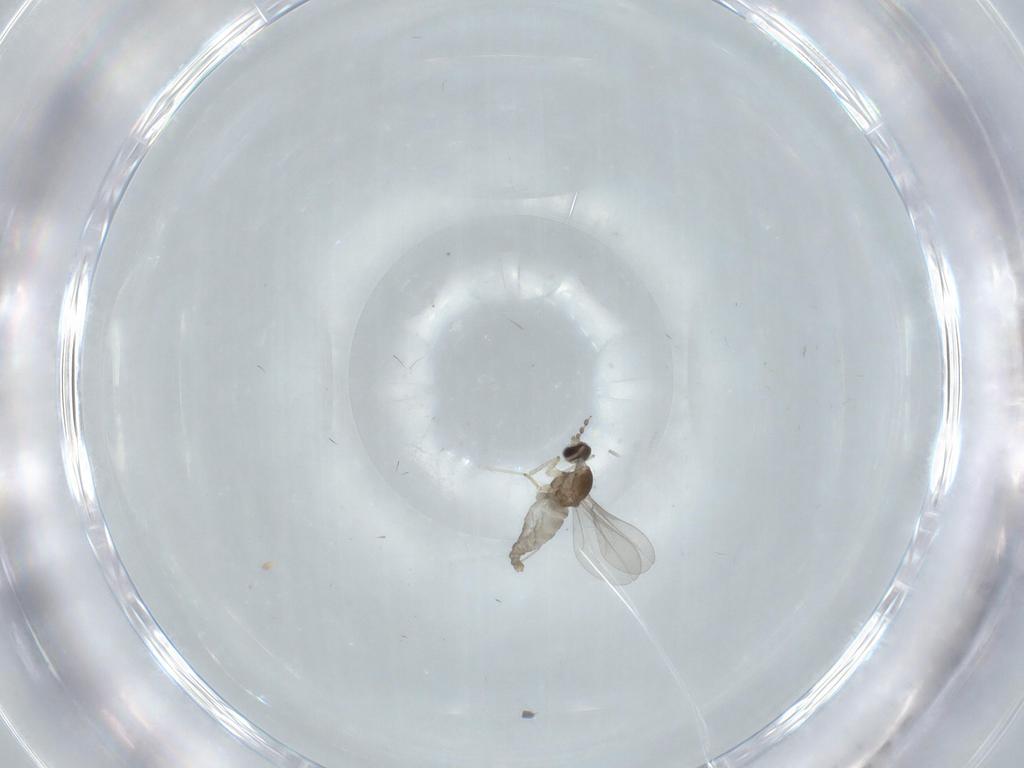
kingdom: Animalia
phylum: Arthropoda
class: Insecta
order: Diptera
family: Cecidomyiidae
